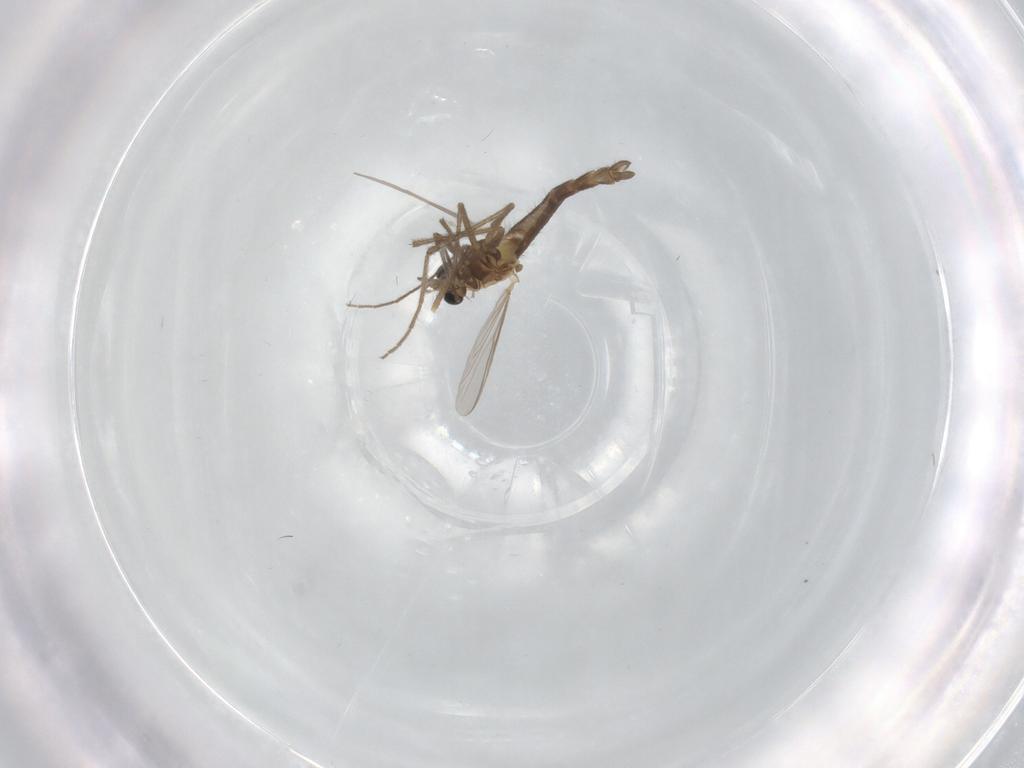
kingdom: Animalia
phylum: Arthropoda
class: Insecta
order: Diptera
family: Chironomidae
